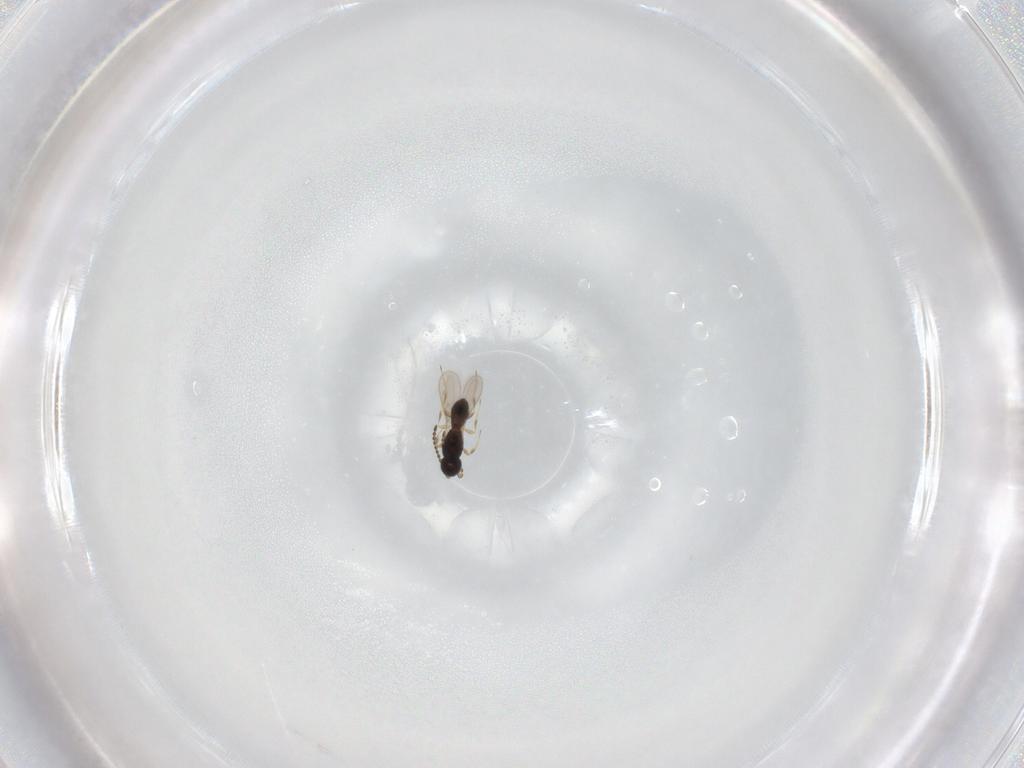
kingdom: Animalia
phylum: Arthropoda
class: Insecta
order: Hymenoptera
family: Scelionidae
